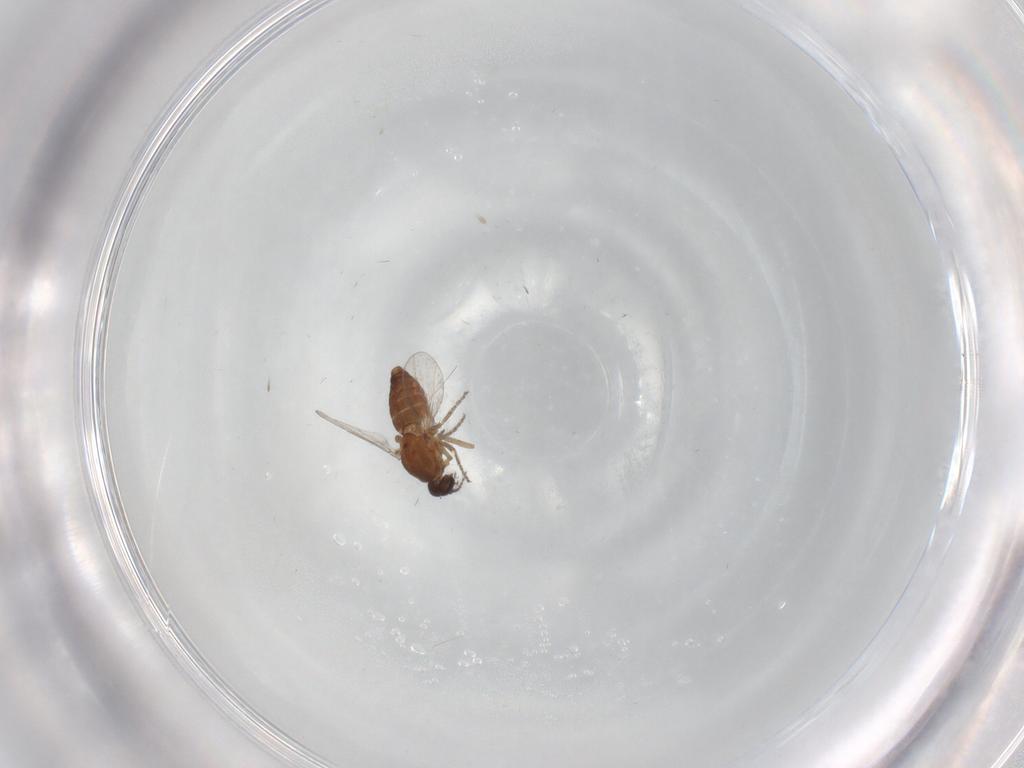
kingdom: Animalia
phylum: Arthropoda
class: Insecta
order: Diptera
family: Ceratopogonidae
